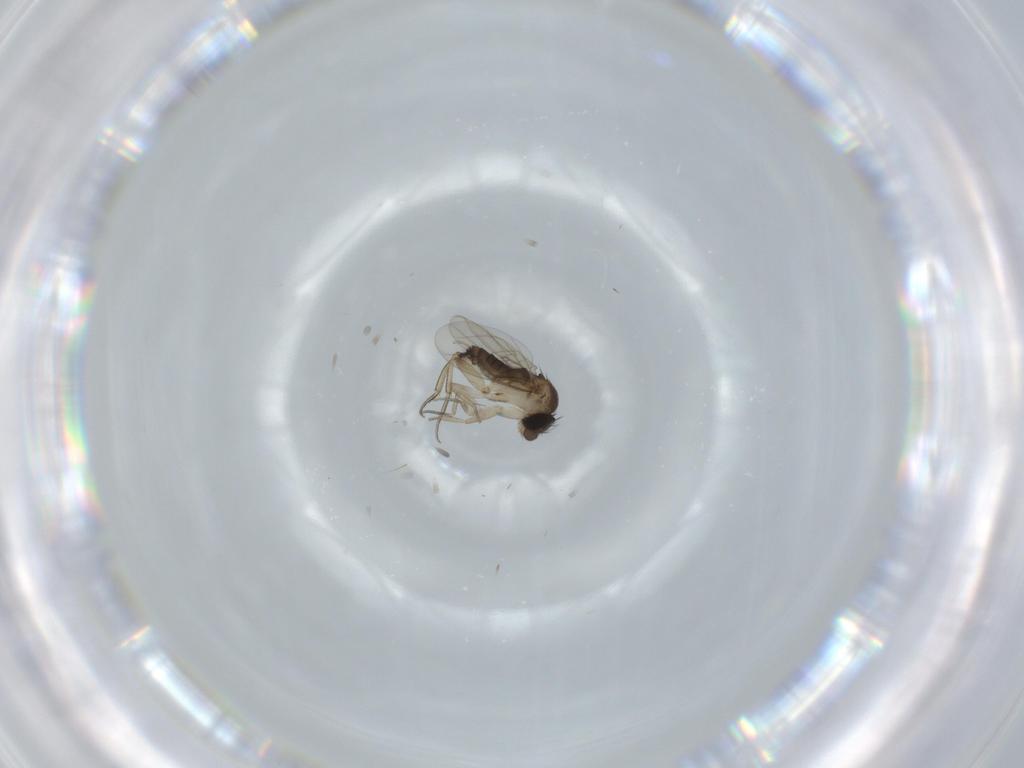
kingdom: Animalia
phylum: Arthropoda
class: Insecta
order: Diptera
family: Phoridae
